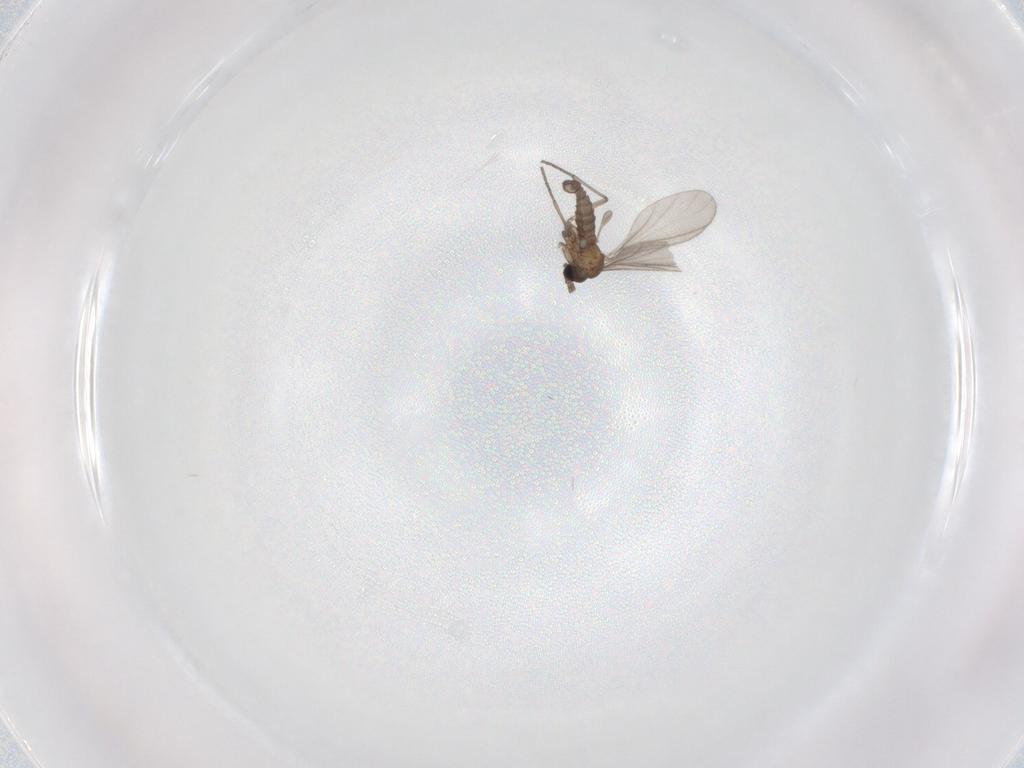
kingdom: Animalia
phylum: Arthropoda
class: Insecta
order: Diptera
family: Sciaridae
